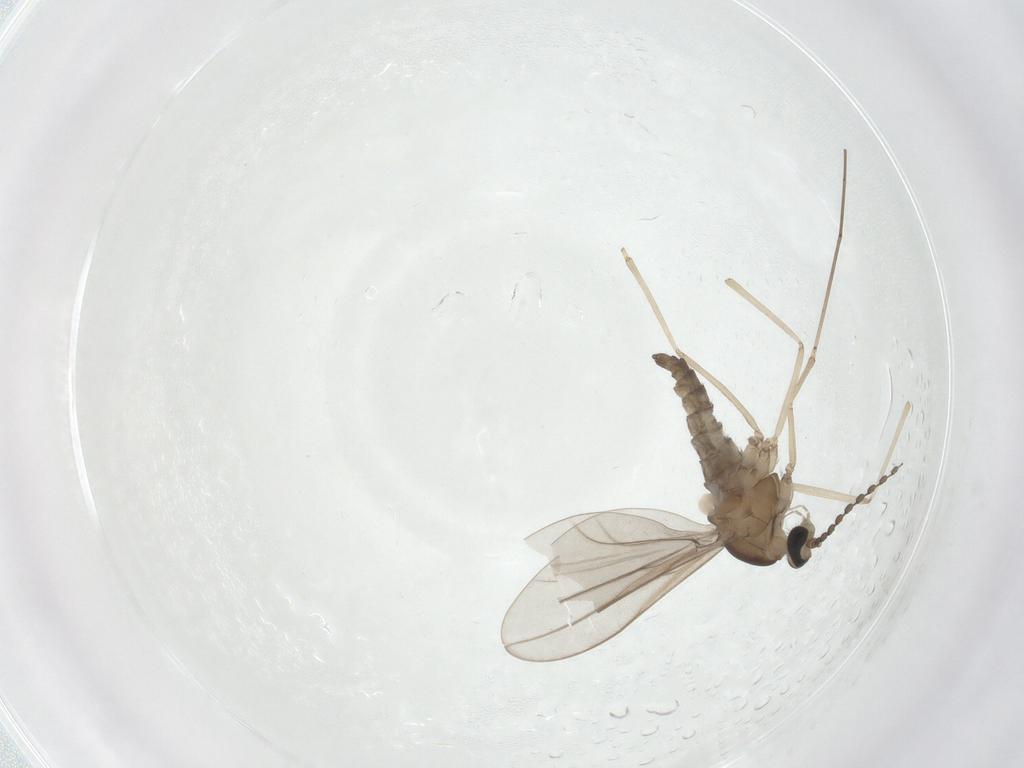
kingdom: Animalia
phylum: Arthropoda
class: Insecta
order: Diptera
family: Cecidomyiidae
